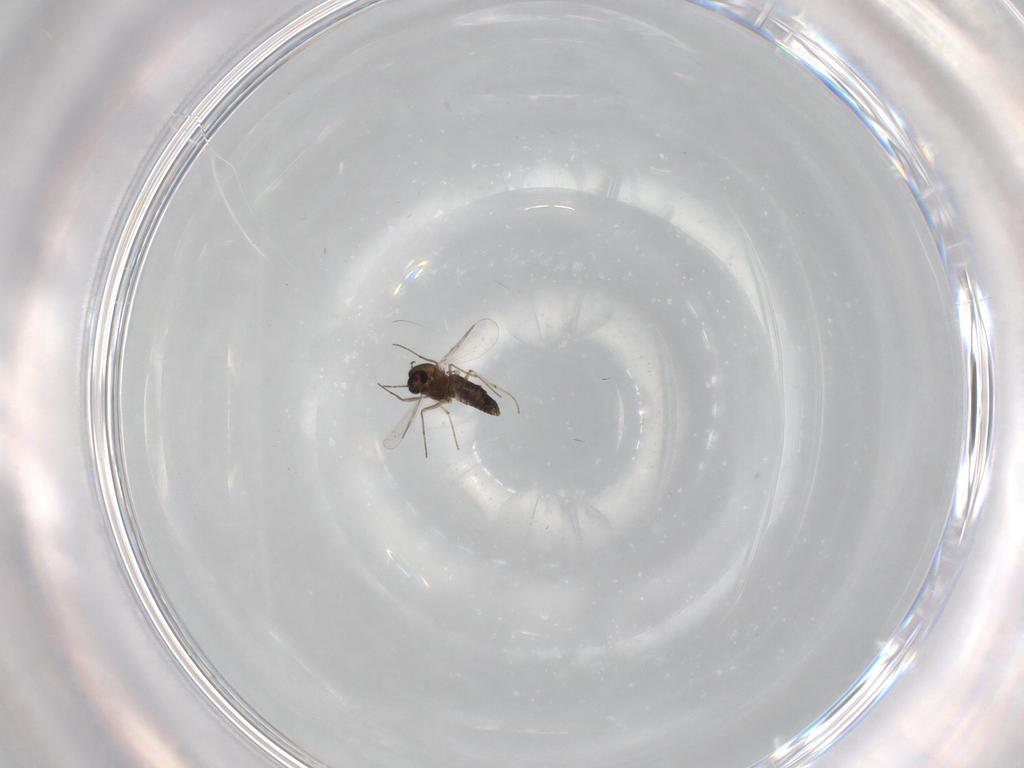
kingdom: Animalia
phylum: Arthropoda
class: Insecta
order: Diptera
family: Chironomidae
